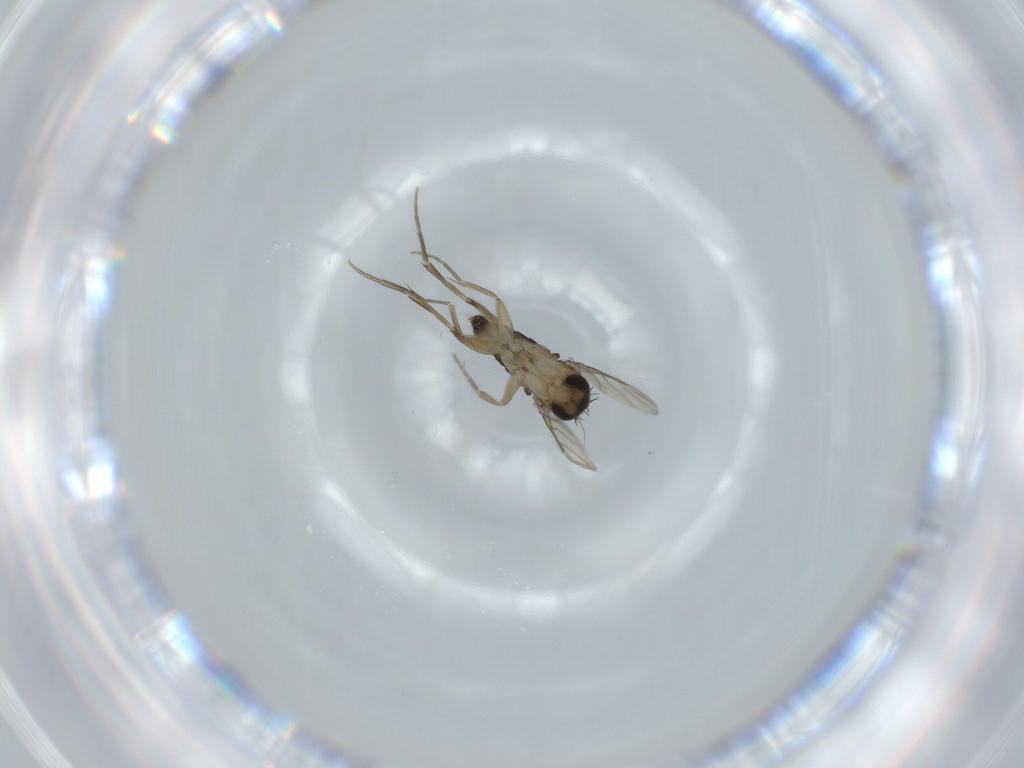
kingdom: Animalia
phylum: Arthropoda
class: Insecta
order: Diptera
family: Phoridae
